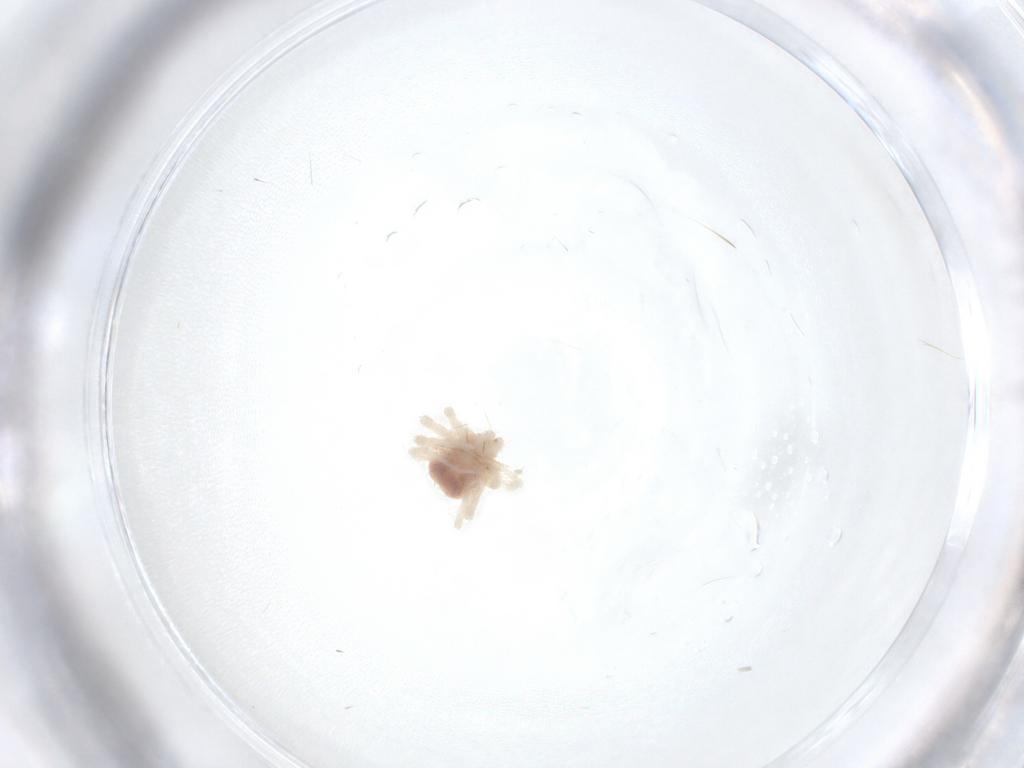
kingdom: Animalia
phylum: Arthropoda
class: Arachnida
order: Trombidiformes
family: Anystidae
